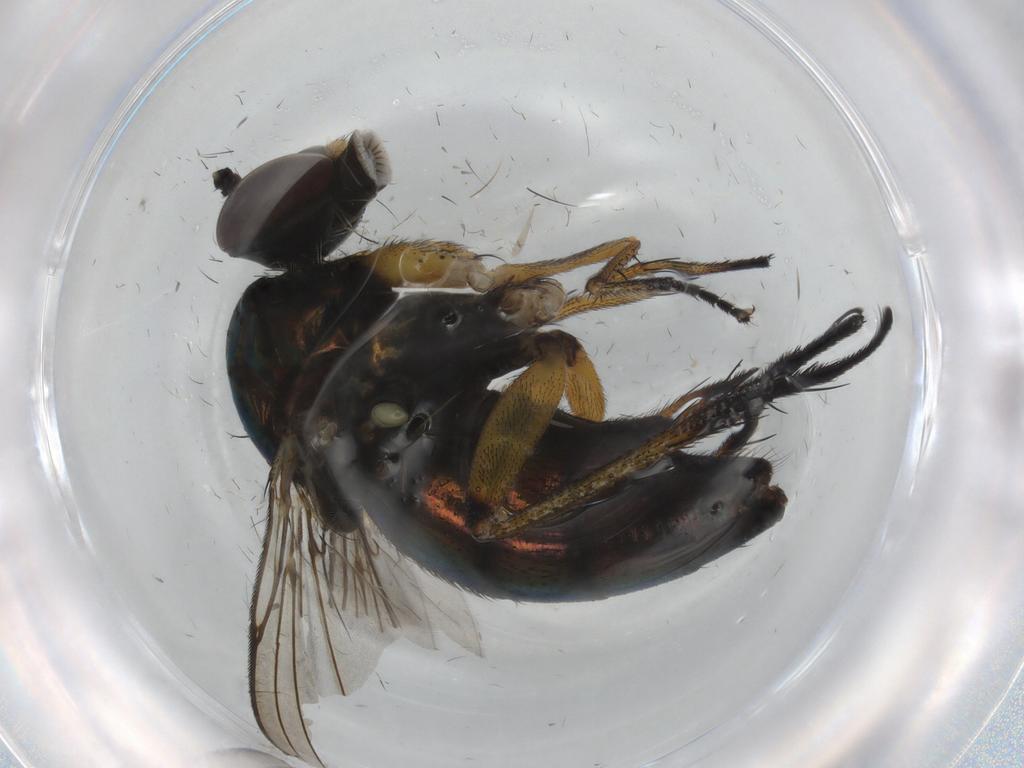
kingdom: Animalia
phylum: Arthropoda
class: Insecta
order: Diptera
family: Dolichopodidae
